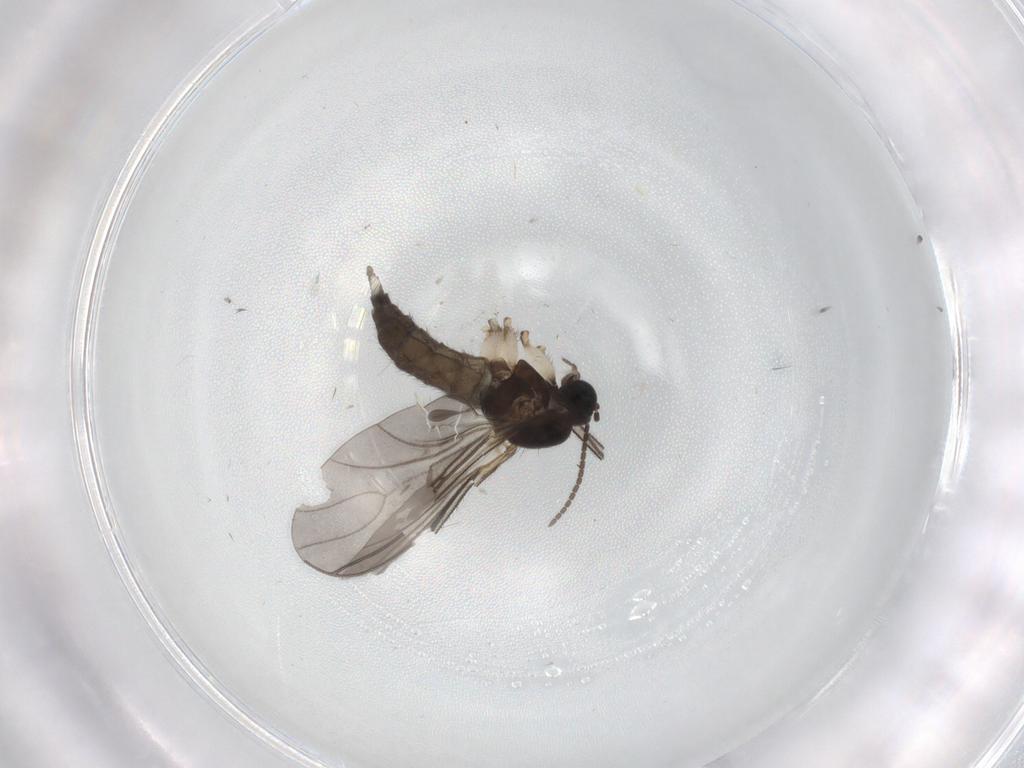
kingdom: Animalia
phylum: Arthropoda
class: Insecta
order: Diptera
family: Sciaridae
